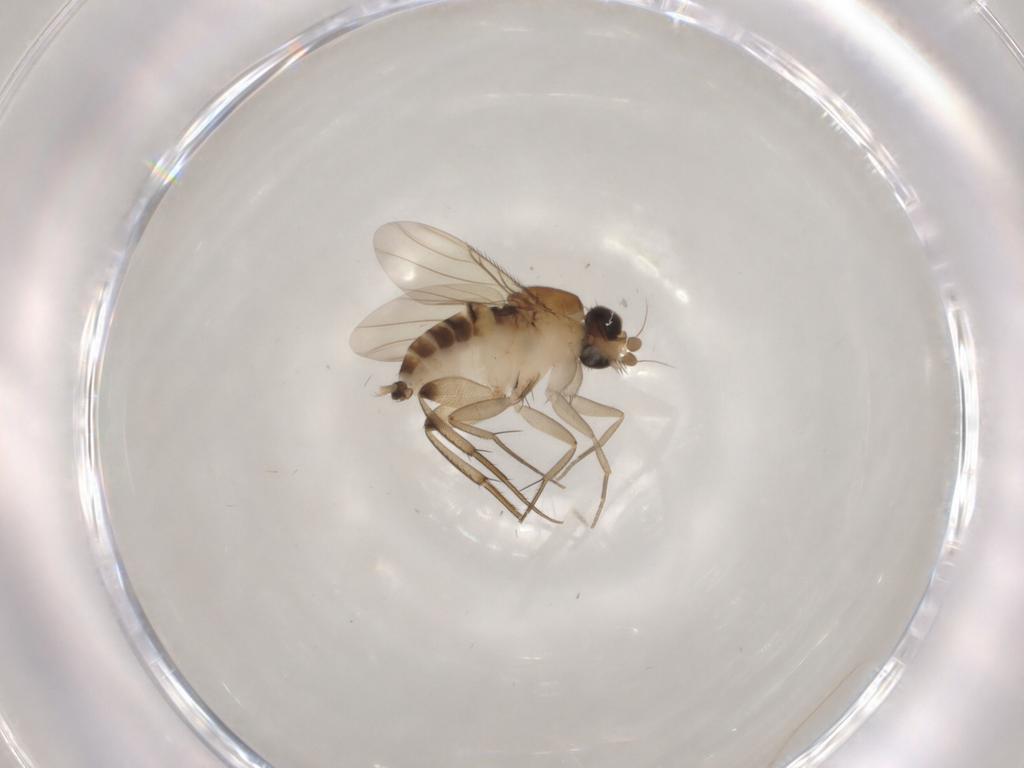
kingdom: Animalia
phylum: Arthropoda
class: Insecta
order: Diptera
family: Phoridae
